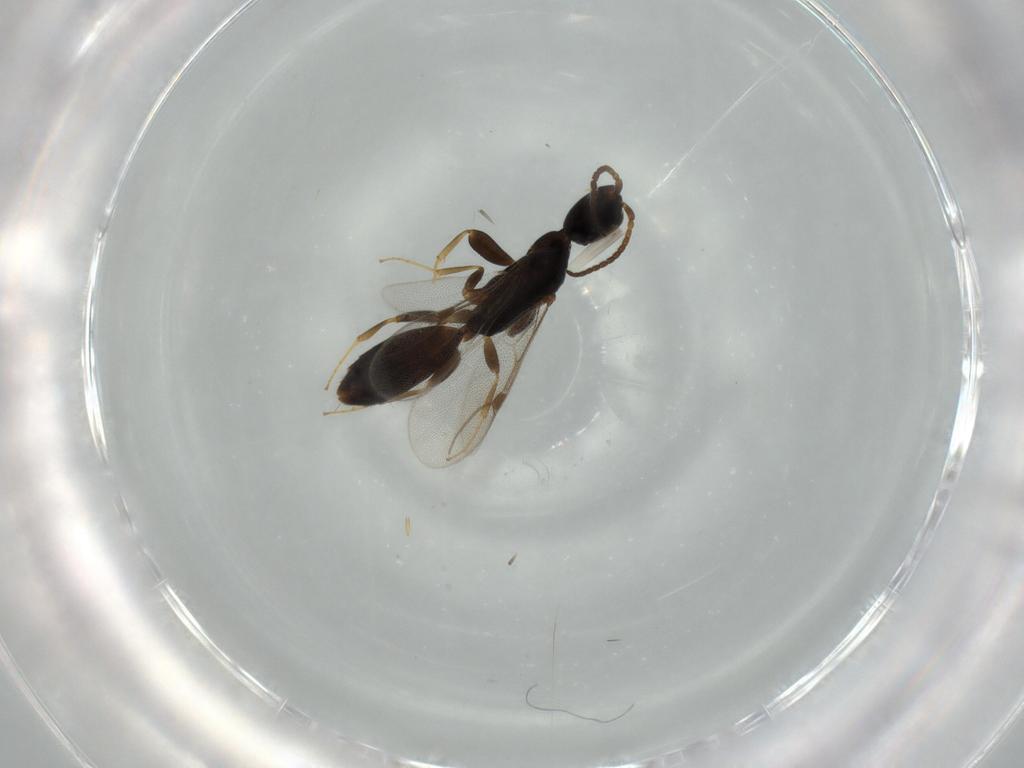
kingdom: Animalia
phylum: Arthropoda
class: Insecta
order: Hymenoptera
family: Bethylidae
